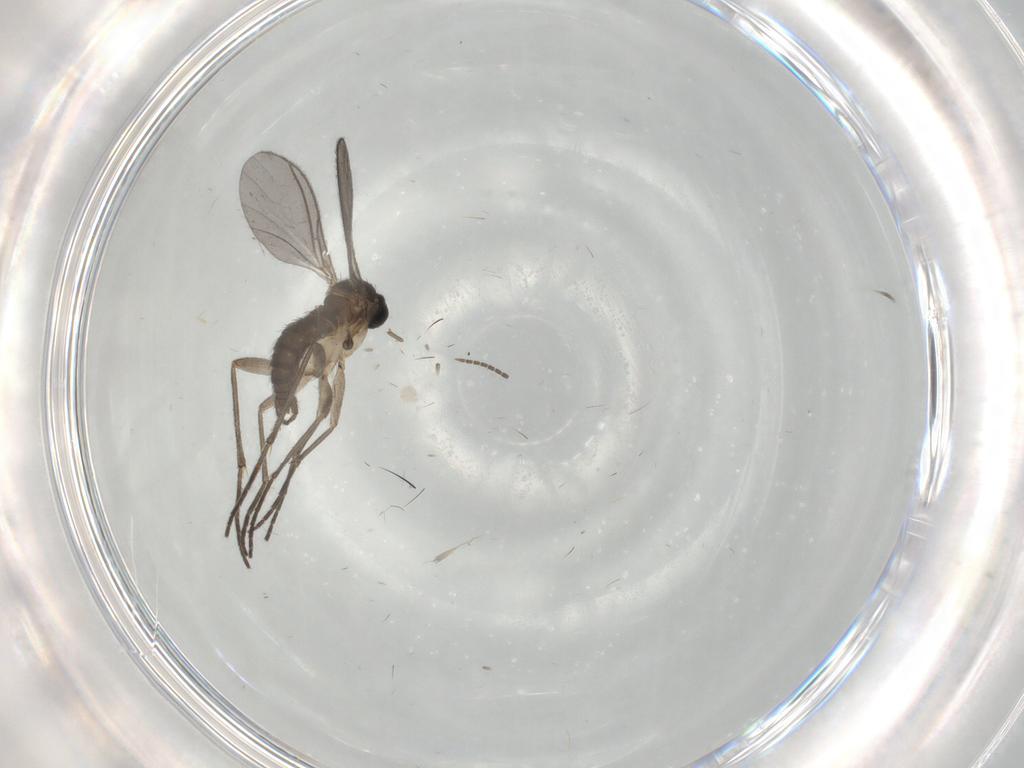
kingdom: Animalia
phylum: Arthropoda
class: Insecta
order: Diptera
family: Sciaridae
